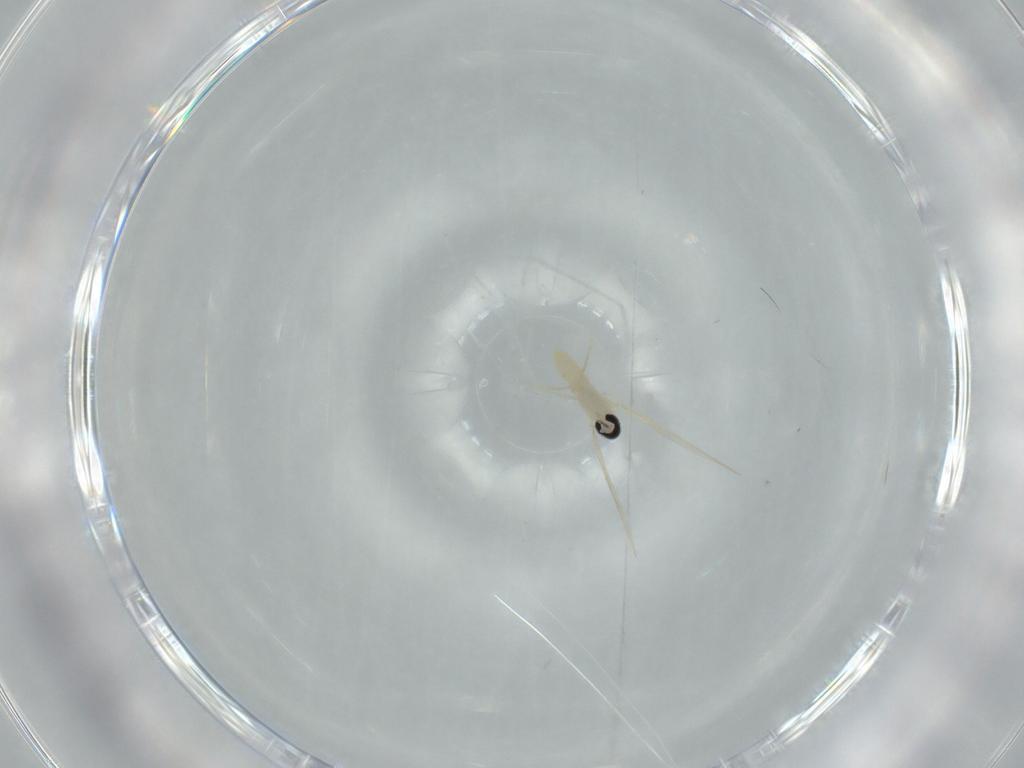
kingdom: Animalia
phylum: Arthropoda
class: Insecta
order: Diptera
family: Cecidomyiidae
